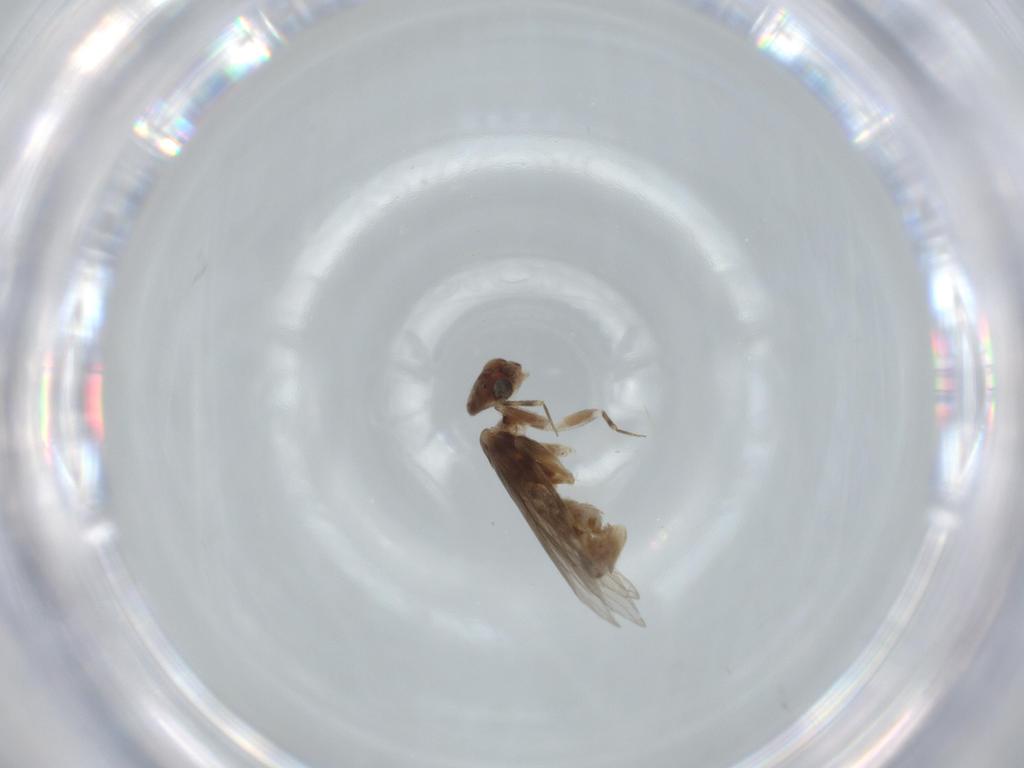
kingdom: Animalia
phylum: Arthropoda
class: Insecta
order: Psocodea
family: Lepidopsocidae
